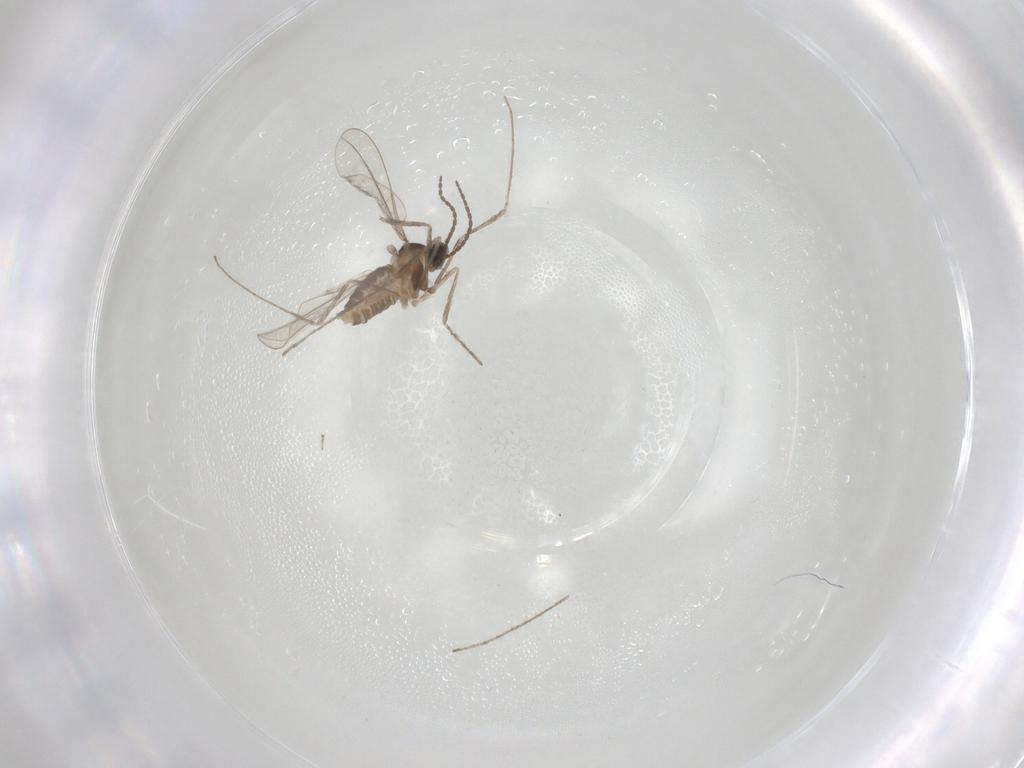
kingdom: Animalia
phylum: Arthropoda
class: Insecta
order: Diptera
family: Cecidomyiidae
